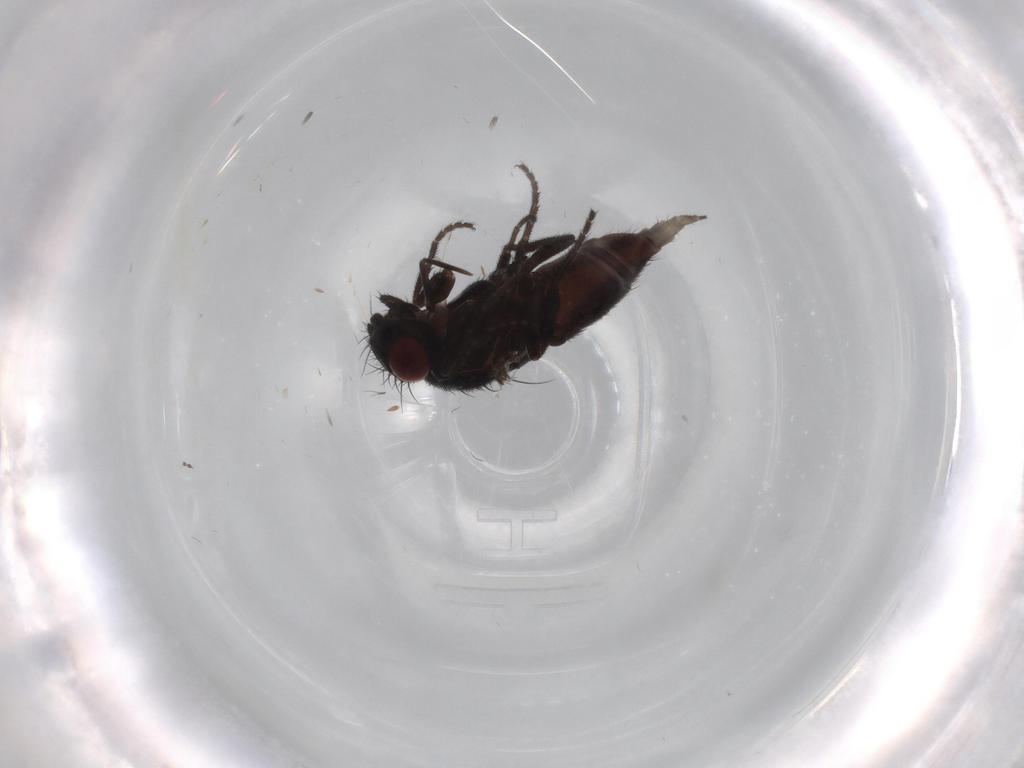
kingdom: Animalia
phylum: Arthropoda
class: Insecta
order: Diptera
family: Milichiidae
